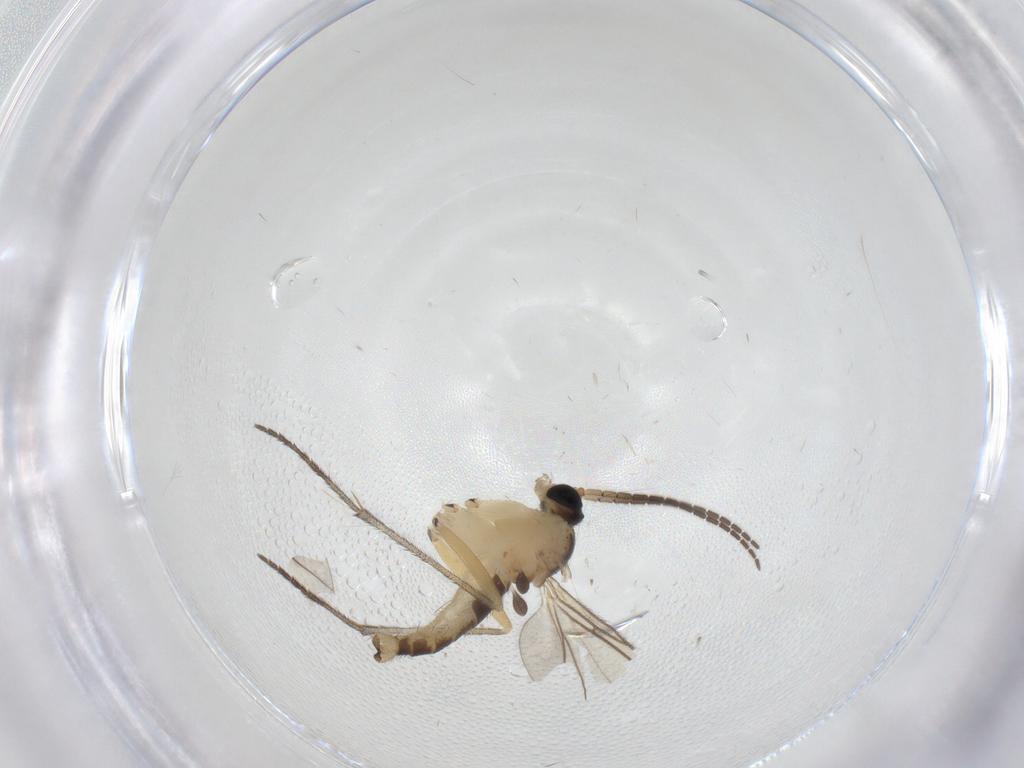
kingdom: Animalia
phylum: Arthropoda
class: Insecta
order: Diptera
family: Sciaridae
